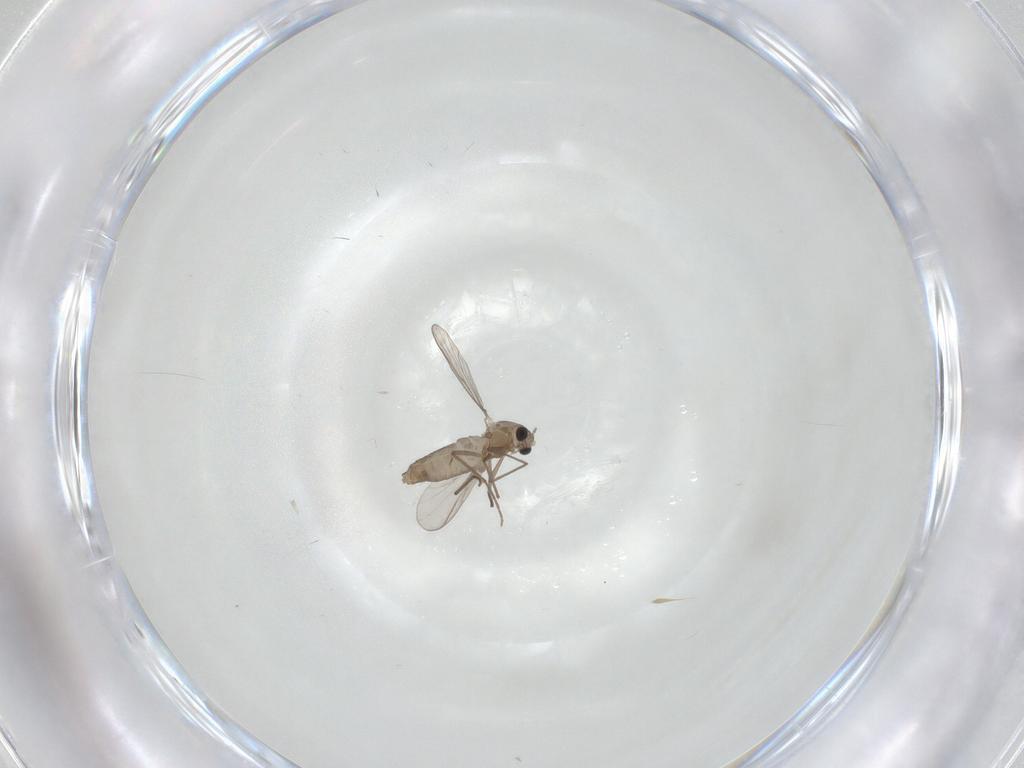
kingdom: Animalia
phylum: Arthropoda
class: Insecta
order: Diptera
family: Chironomidae
